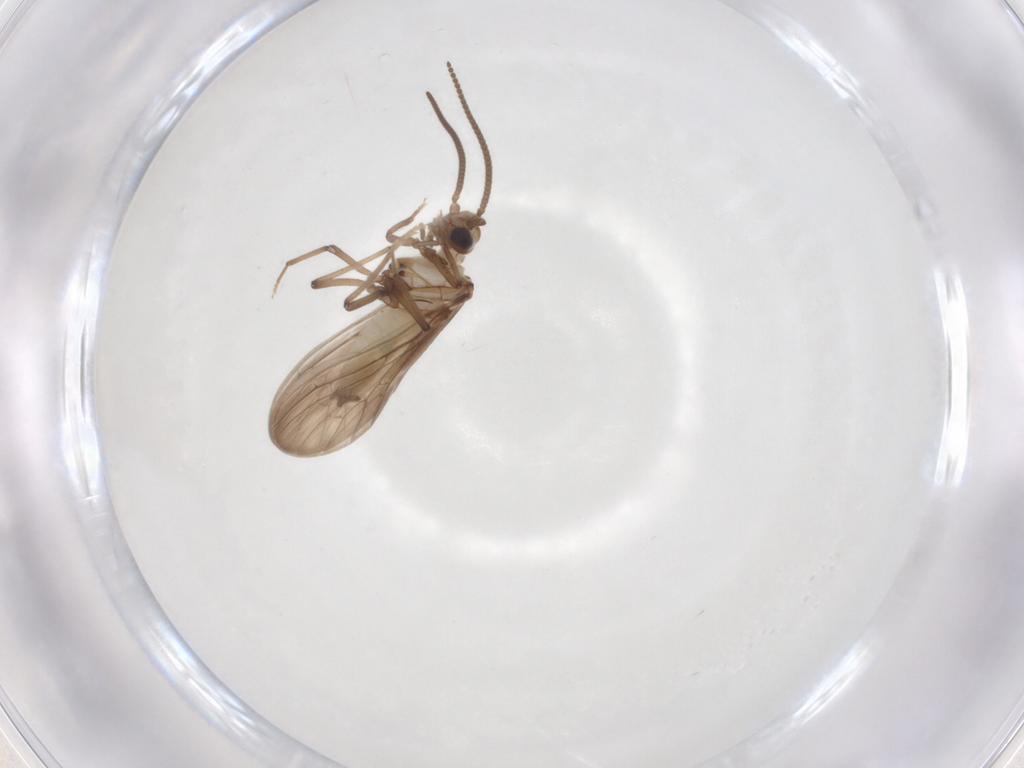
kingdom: Animalia
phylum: Arthropoda
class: Insecta
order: Neuroptera
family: Coniopterygidae
